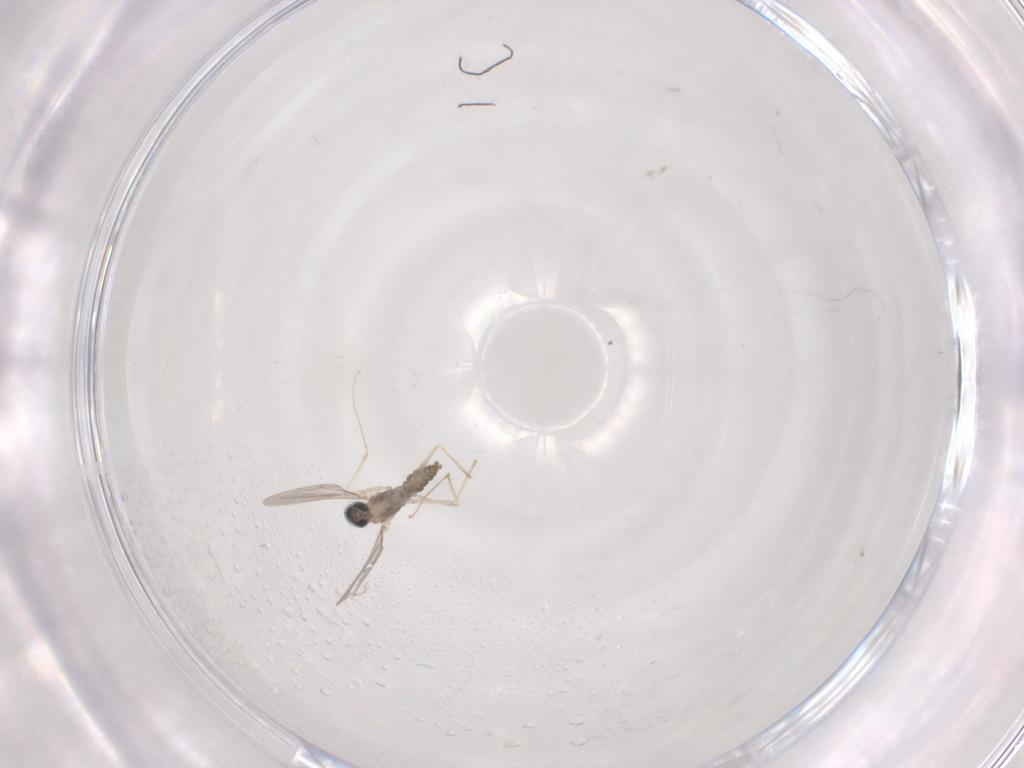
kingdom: Animalia
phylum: Arthropoda
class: Insecta
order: Diptera
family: Cecidomyiidae
